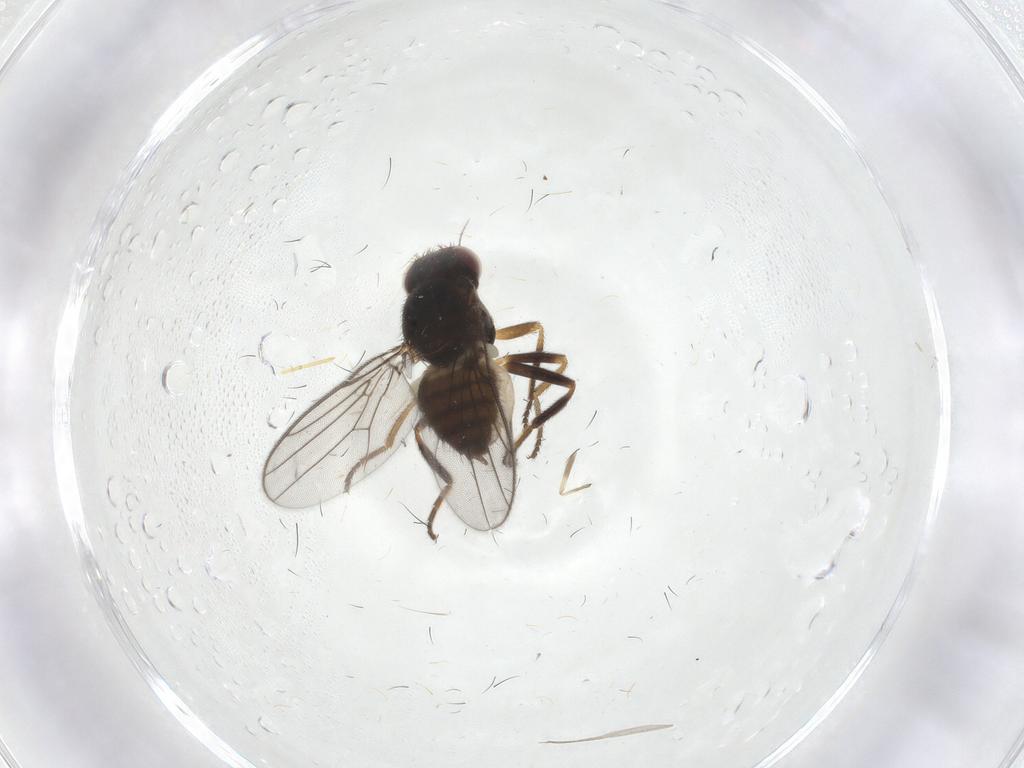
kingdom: Animalia
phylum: Arthropoda
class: Insecta
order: Diptera
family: Chloropidae
